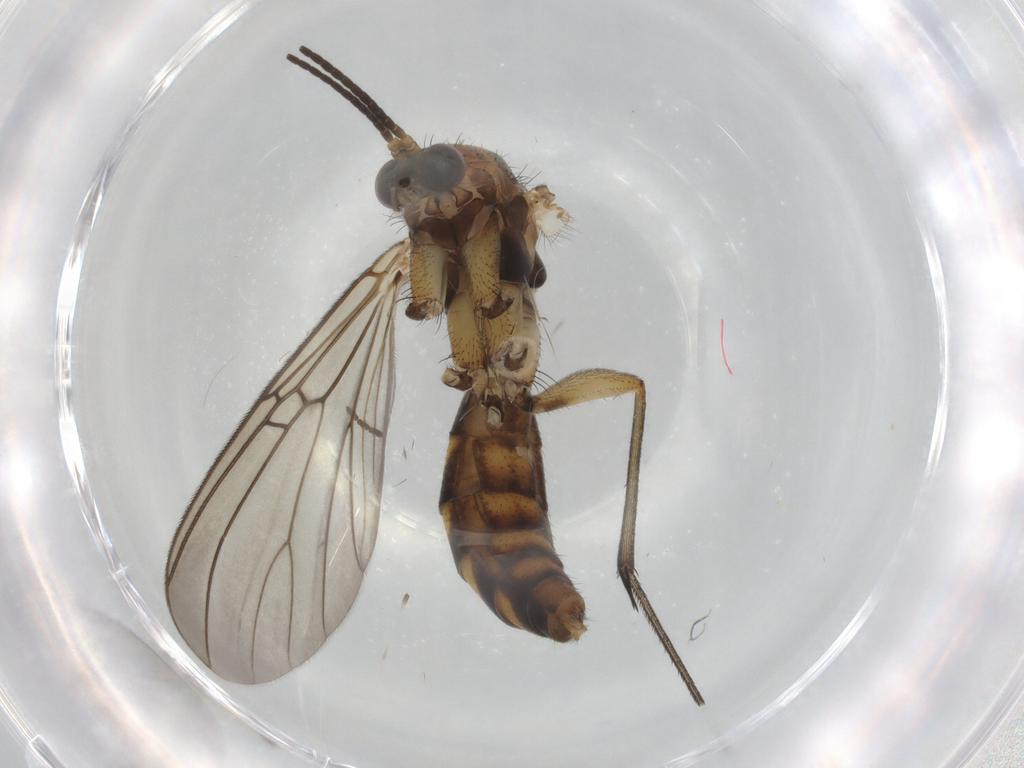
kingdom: Animalia
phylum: Arthropoda
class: Insecta
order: Diptera
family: Mycetophilidae
